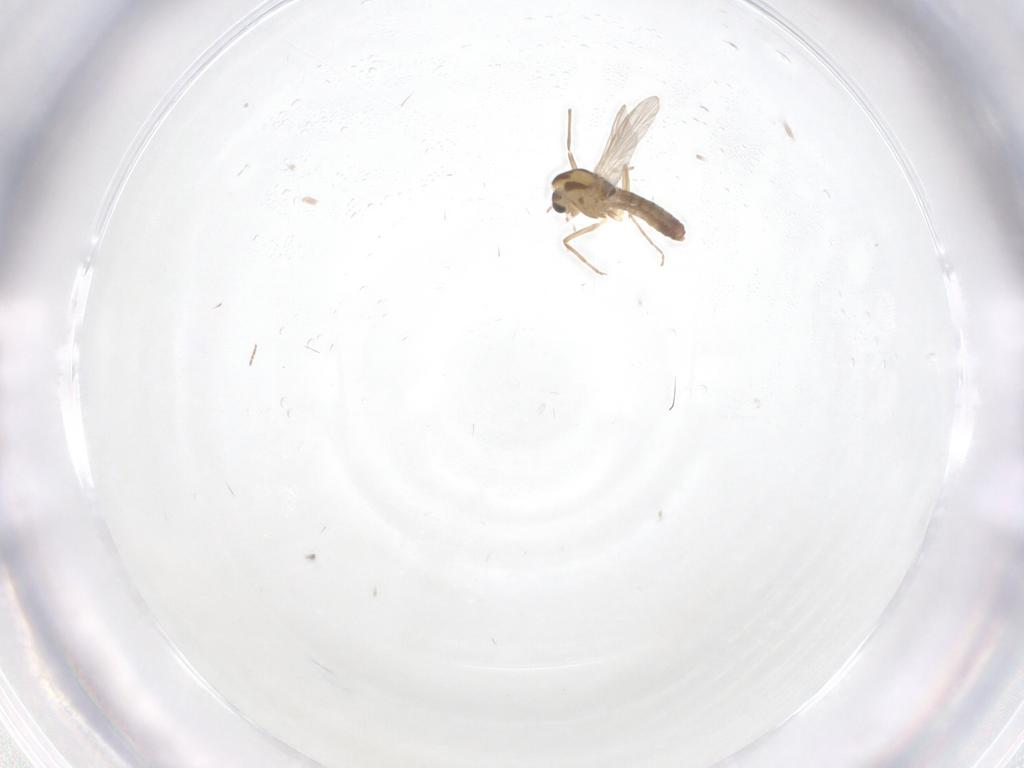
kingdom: Animalia
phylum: Arthropoda
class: Insecta
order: Diptera
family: Chironomidae
